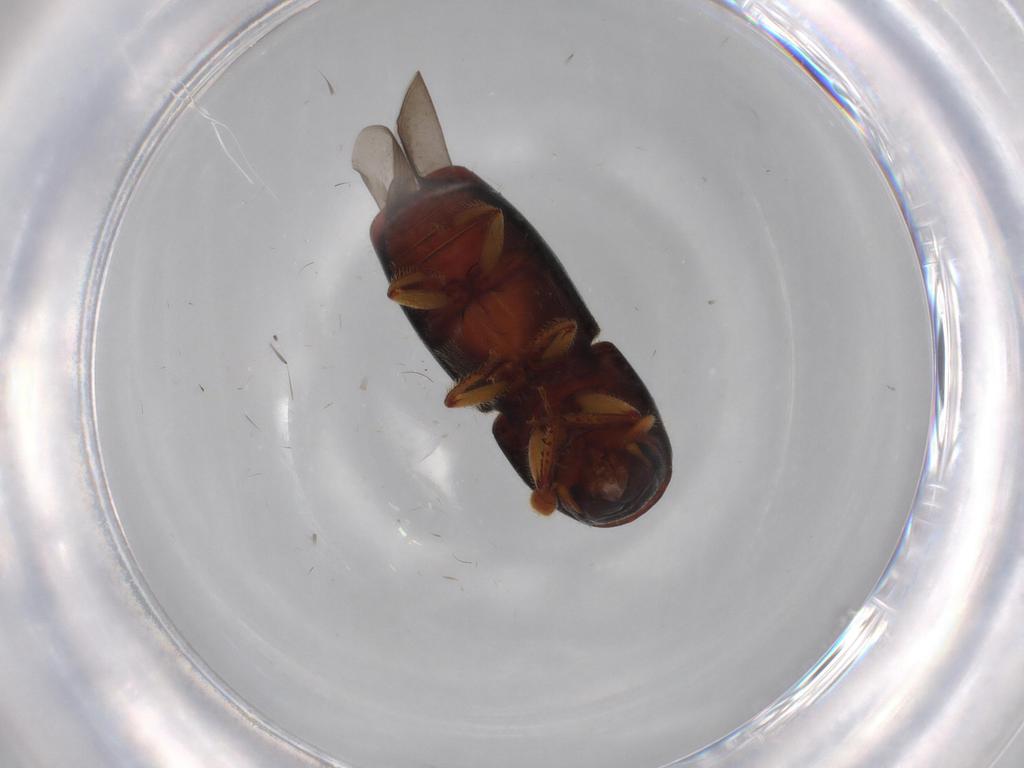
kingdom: Animalia
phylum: Arthropoda
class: Insecta
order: Coleoptera
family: Curculionidae
